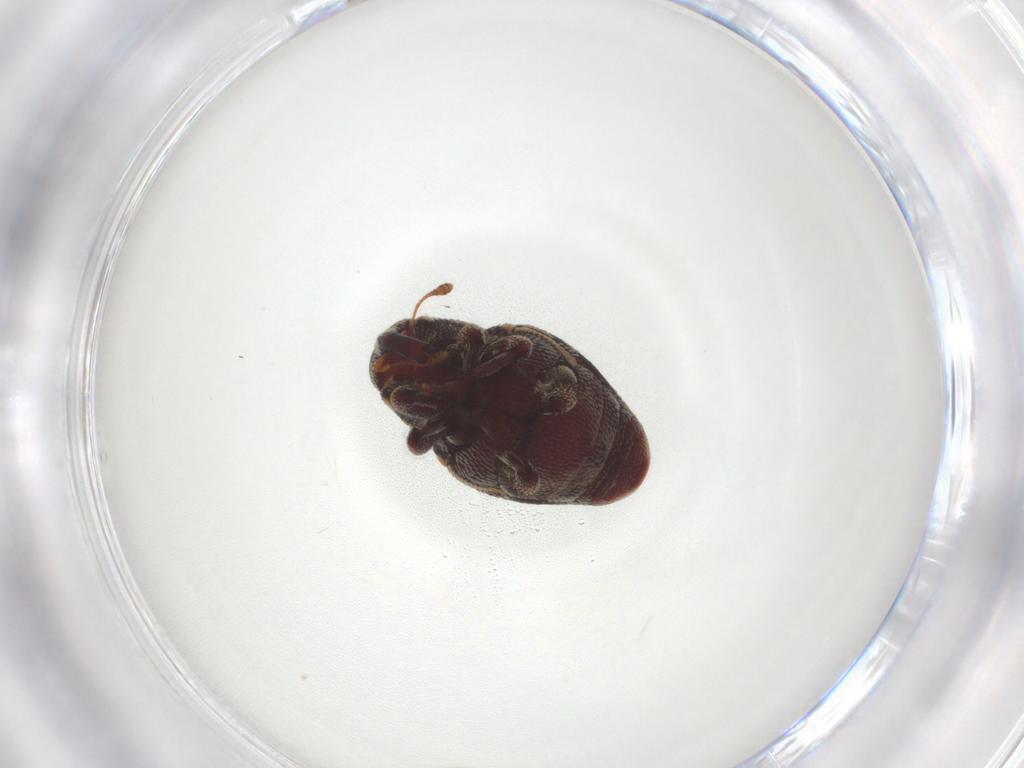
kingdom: Animalia
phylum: Arthropoda
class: Insecta
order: Coleoptera
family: Curculionidae
